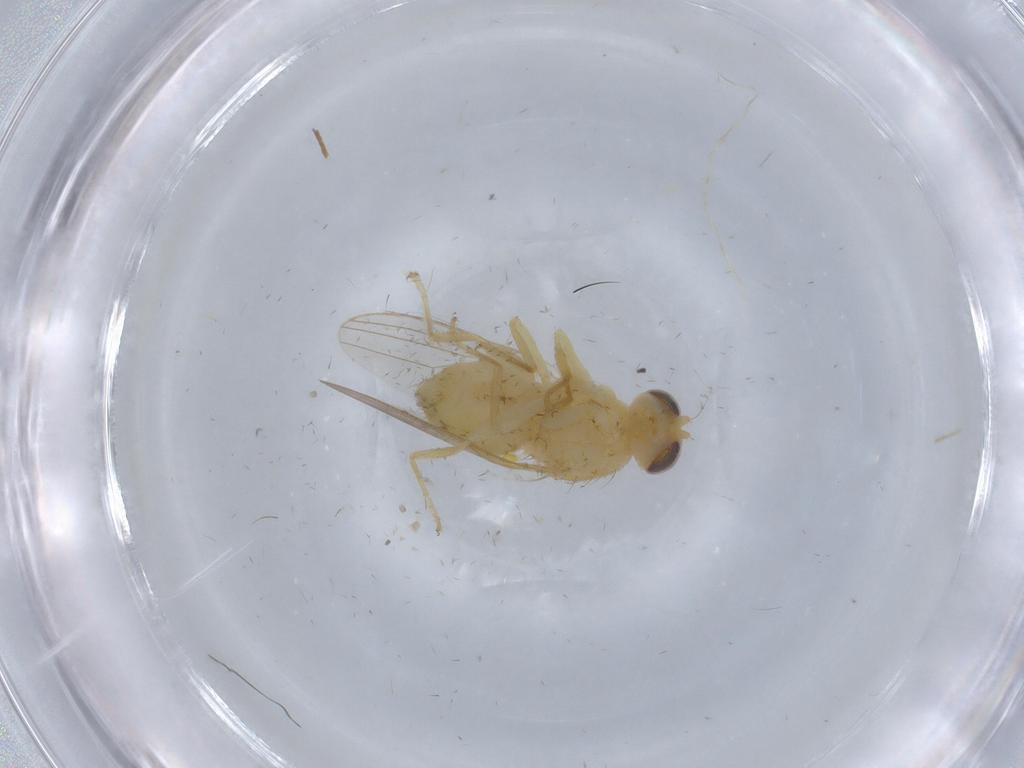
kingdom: Animalia
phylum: Arthropoda
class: Insecta
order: Diptera
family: Chyromyidae
